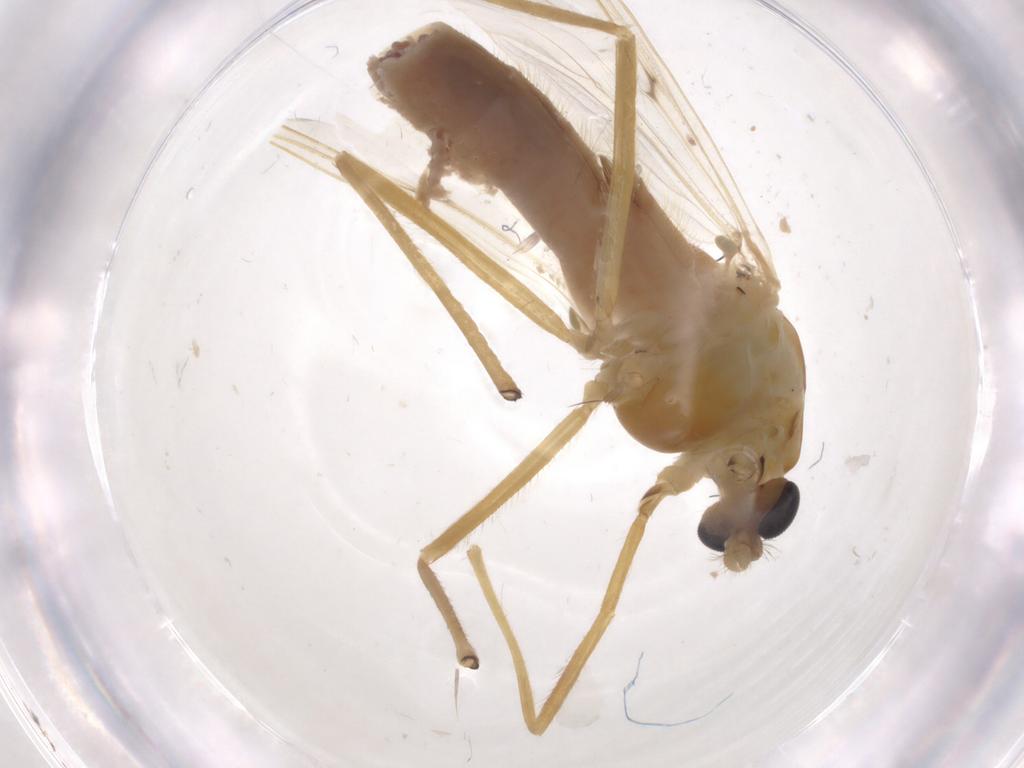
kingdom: Animalia
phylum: Arthropoda
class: Insecta
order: Diptera
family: Chironomidae
